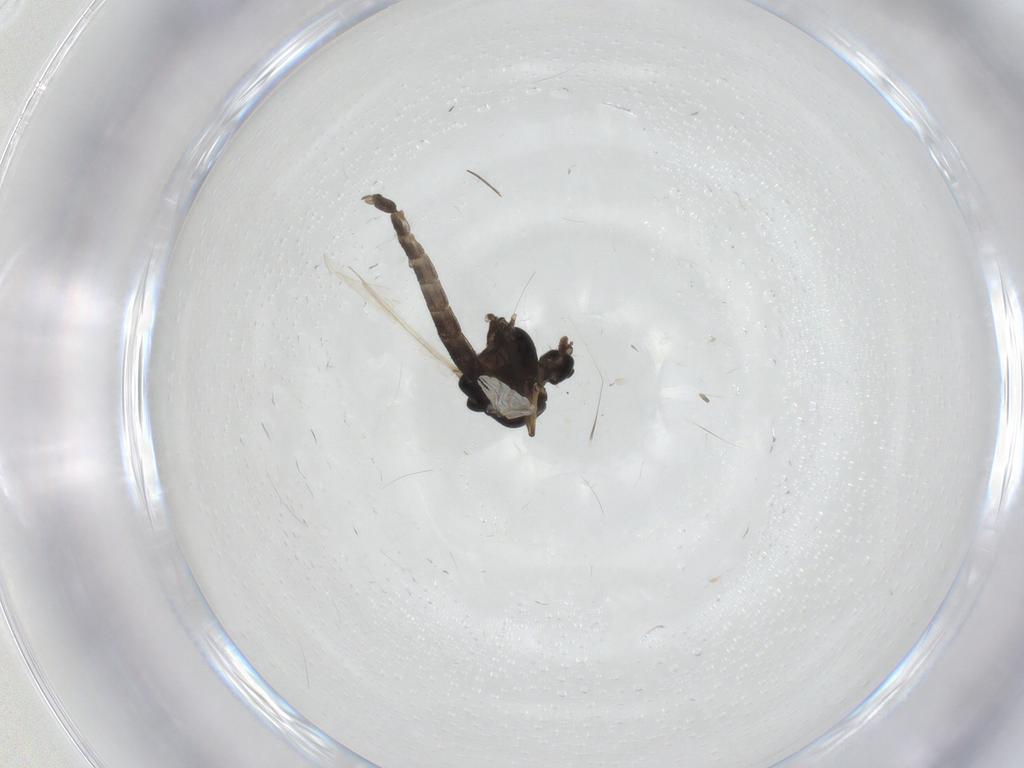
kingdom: Animalia
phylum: Arthropoda
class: Insecta
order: Diptera
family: Chironomidae
